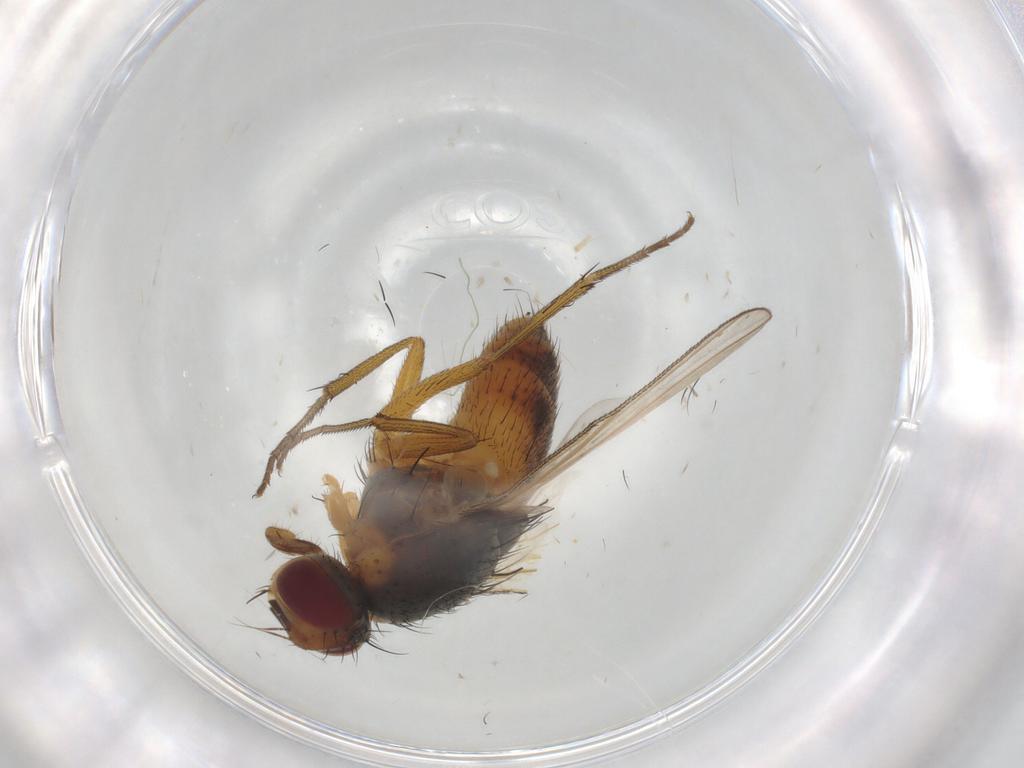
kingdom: Animalia
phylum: Arthropoda
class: Insecta
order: Diptera
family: Muscidae
